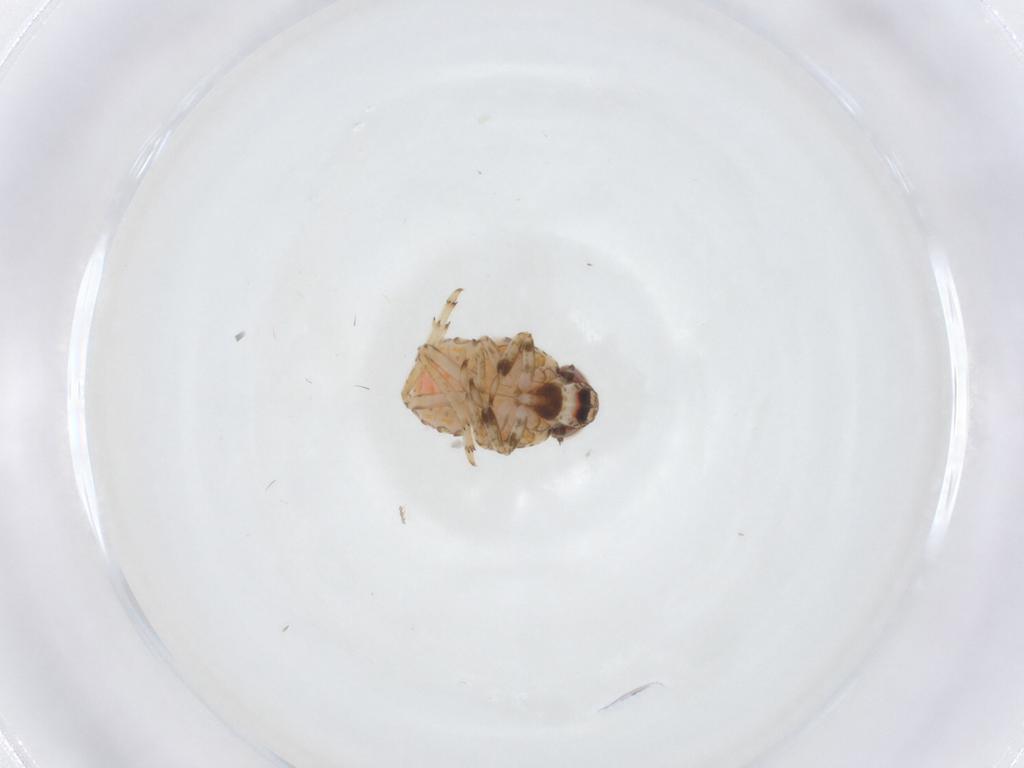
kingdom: Animalia
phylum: Arthropoda
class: Insecta
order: Hemiptera
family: Issidae
